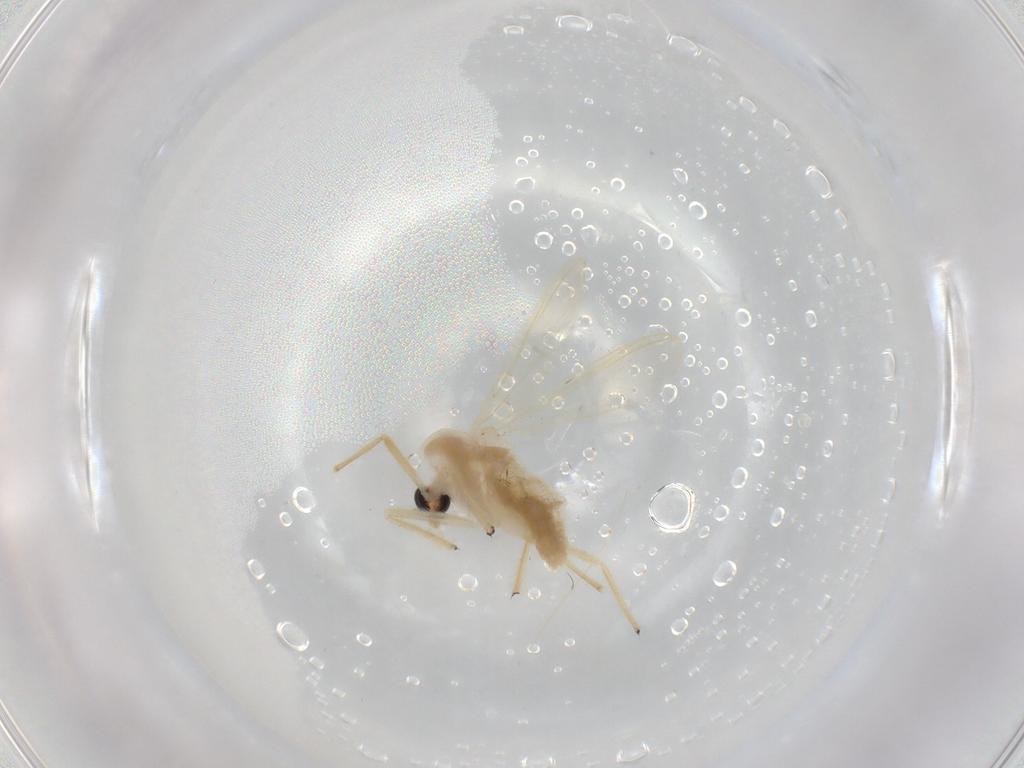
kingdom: Animalia
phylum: Arthropoda
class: Insecta
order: Diptera
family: Chironomidae
